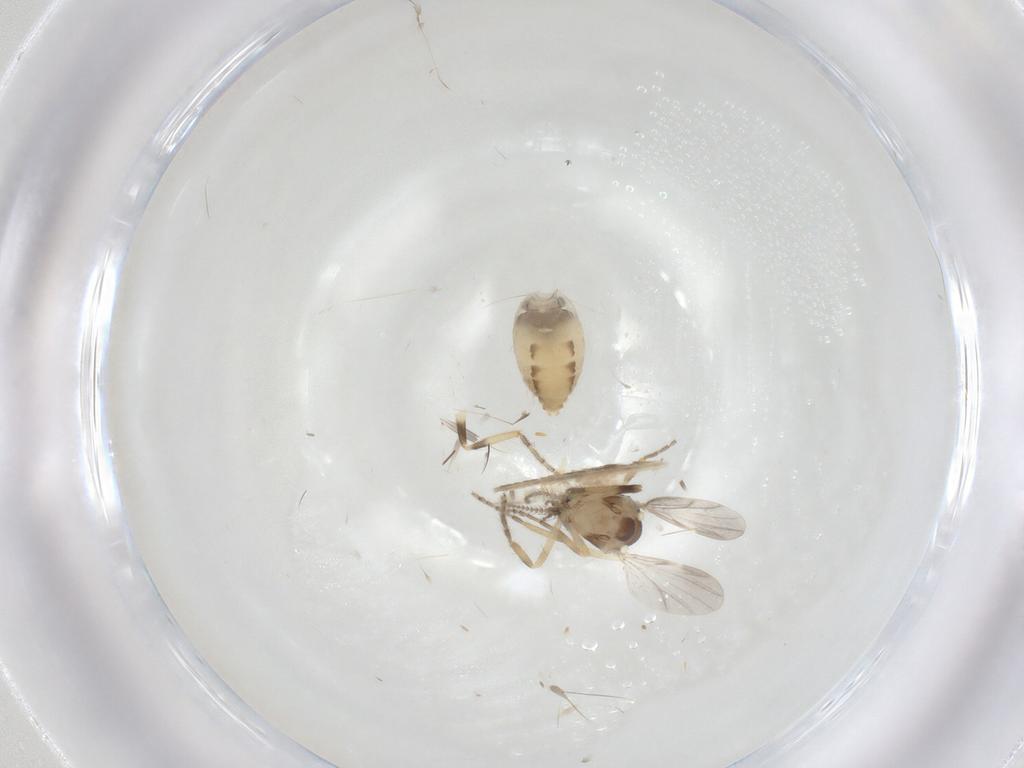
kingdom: Animalia
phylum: Arthropoda
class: Insecta
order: Diptera
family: Ceratopogonidae
